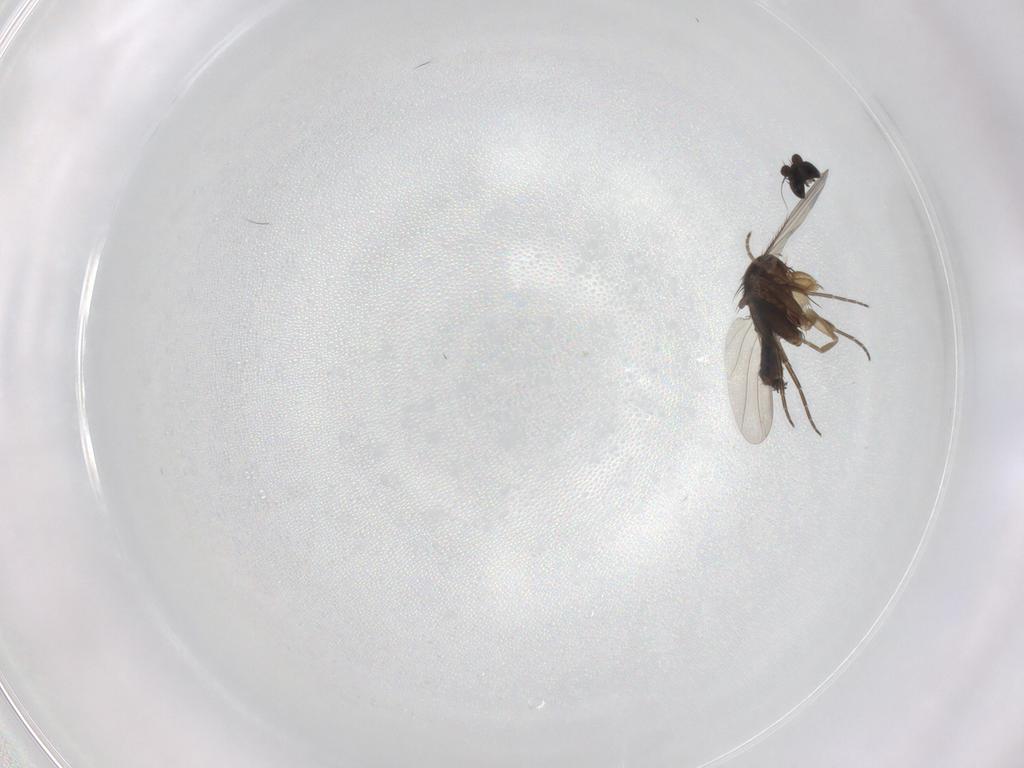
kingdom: Animalia
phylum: Arthropoda
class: Insecta
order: Diptera
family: Phoridae
